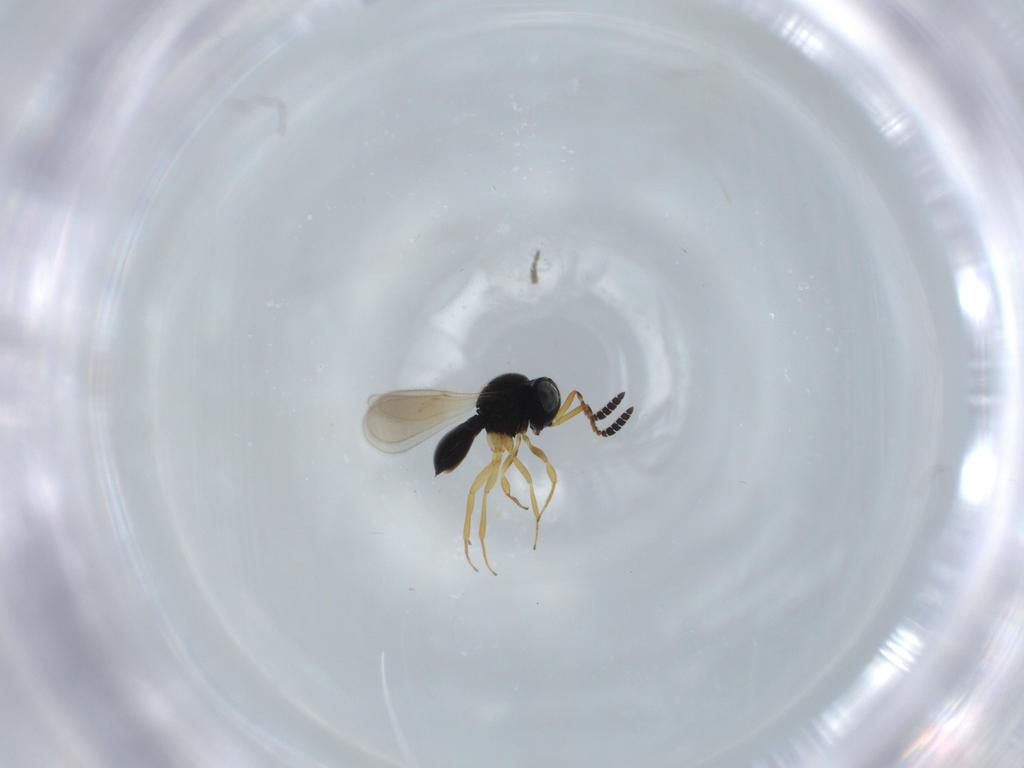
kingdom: Animalia
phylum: Arthropoda
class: Insecta
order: Hymenoptera
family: Scelionidae
